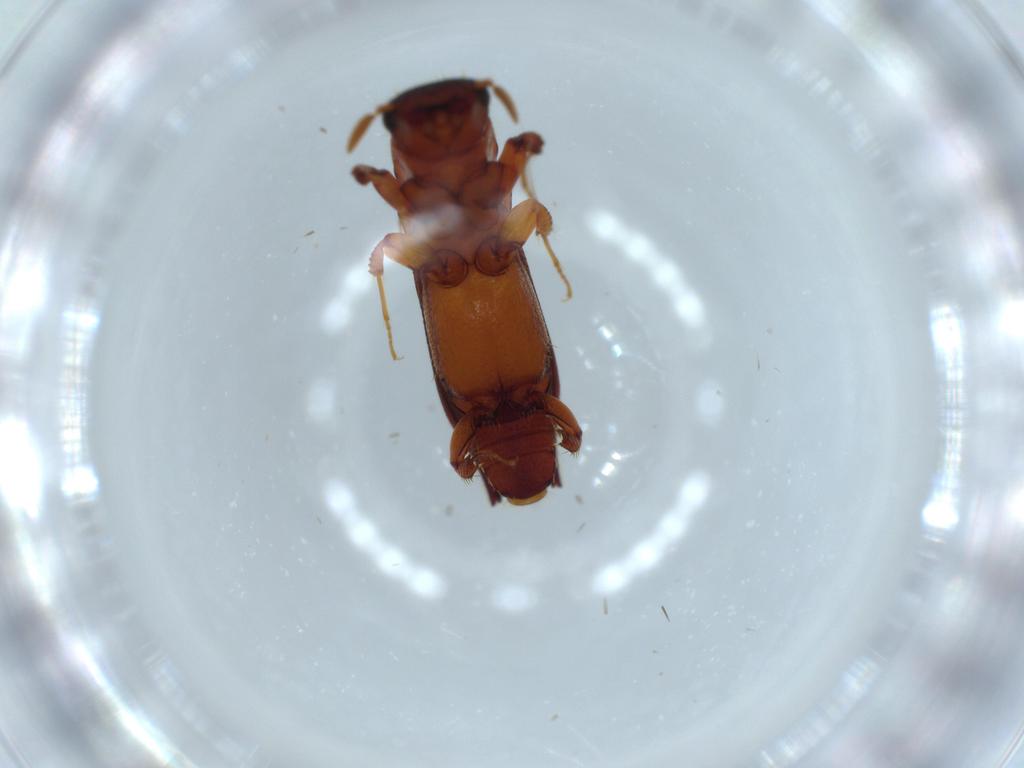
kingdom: Animalia
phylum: Arthropoda
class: Insecta
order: Coleoptera
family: Curculionidae
